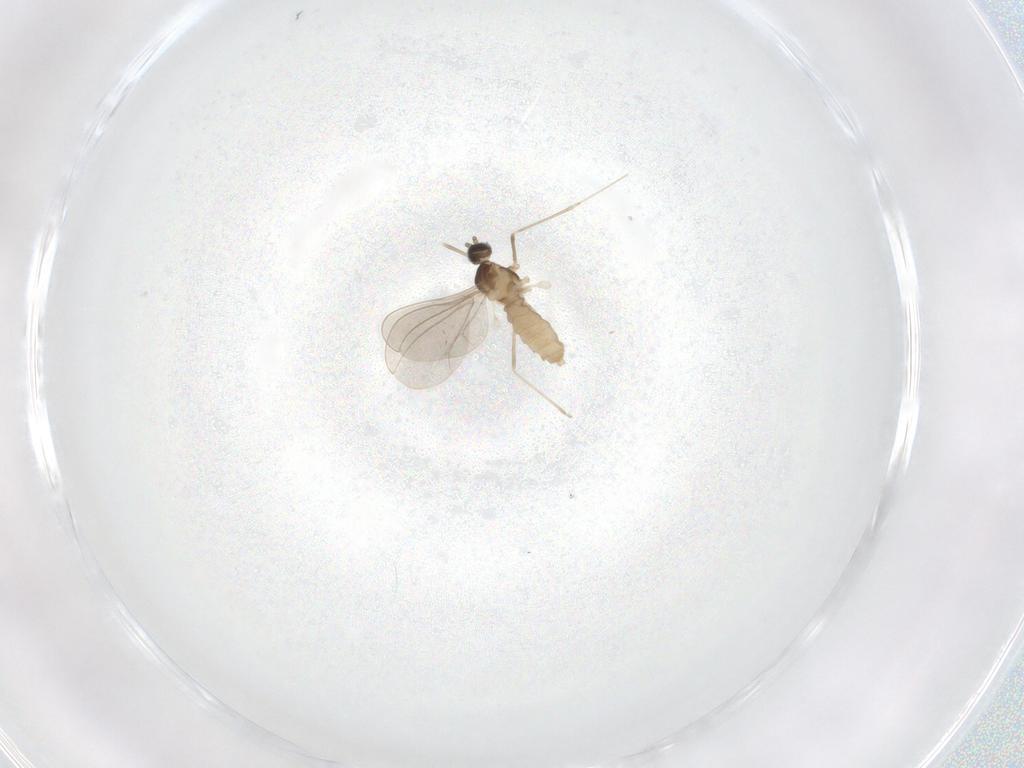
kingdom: Animalia
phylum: Arthropoda
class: Insecta
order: Diptera
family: Cecidomyiidae
